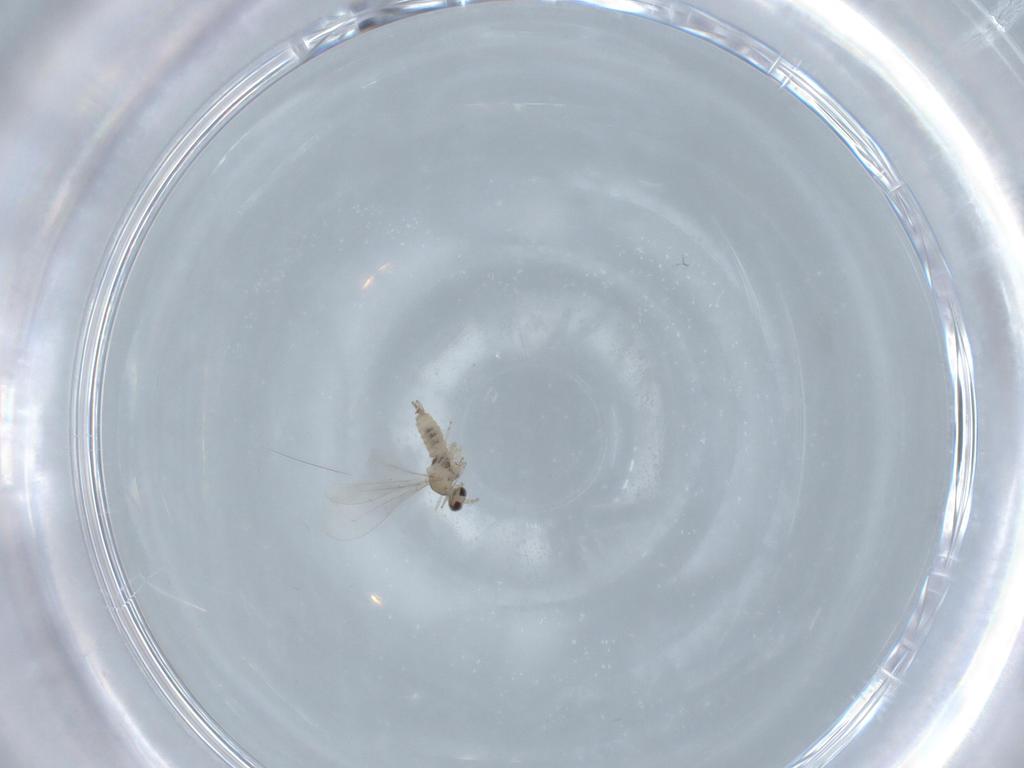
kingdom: Animalia
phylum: Arthropoda
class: Insecta
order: Diptera
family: Cecidomyiidae
